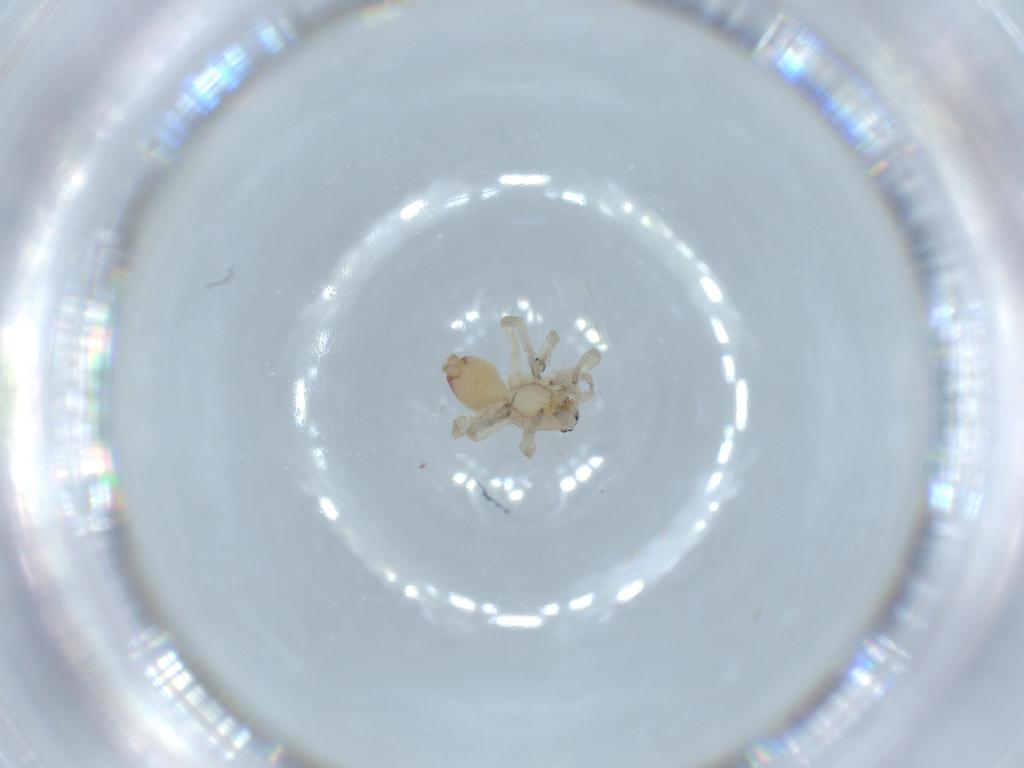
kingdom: Animalia
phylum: Arthropoda
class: Arachnida
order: Araneae
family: Clubionidae
